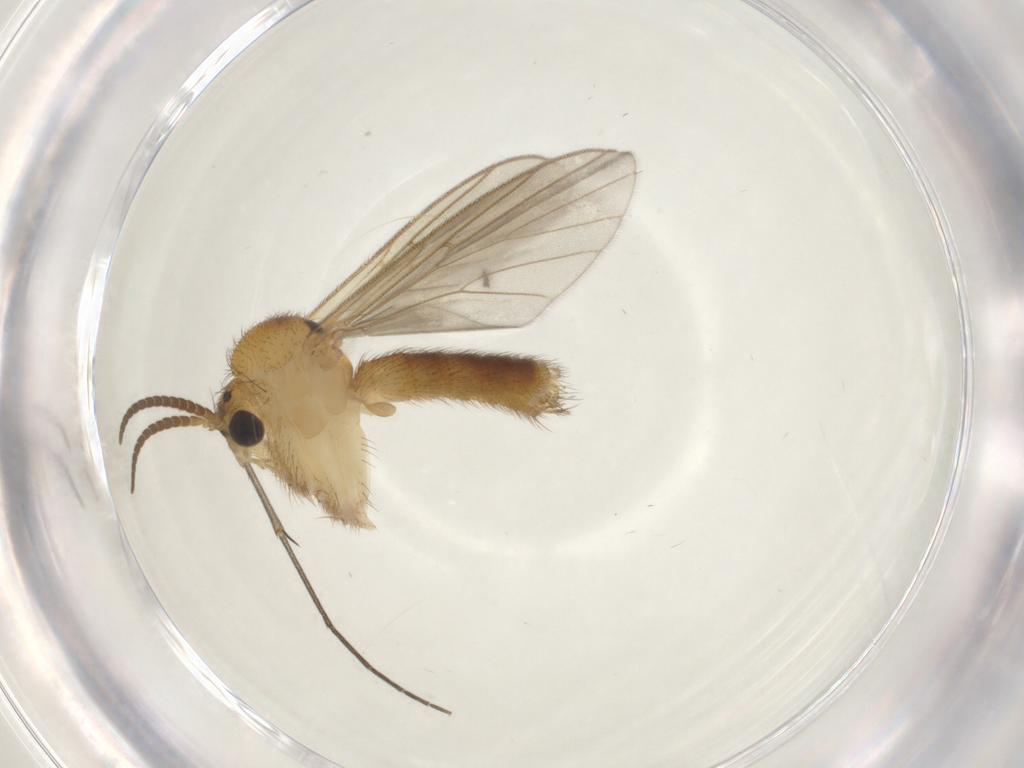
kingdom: Animalia
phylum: Arthropoda
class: Insecta
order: Diptera
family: Mycetophilidae
